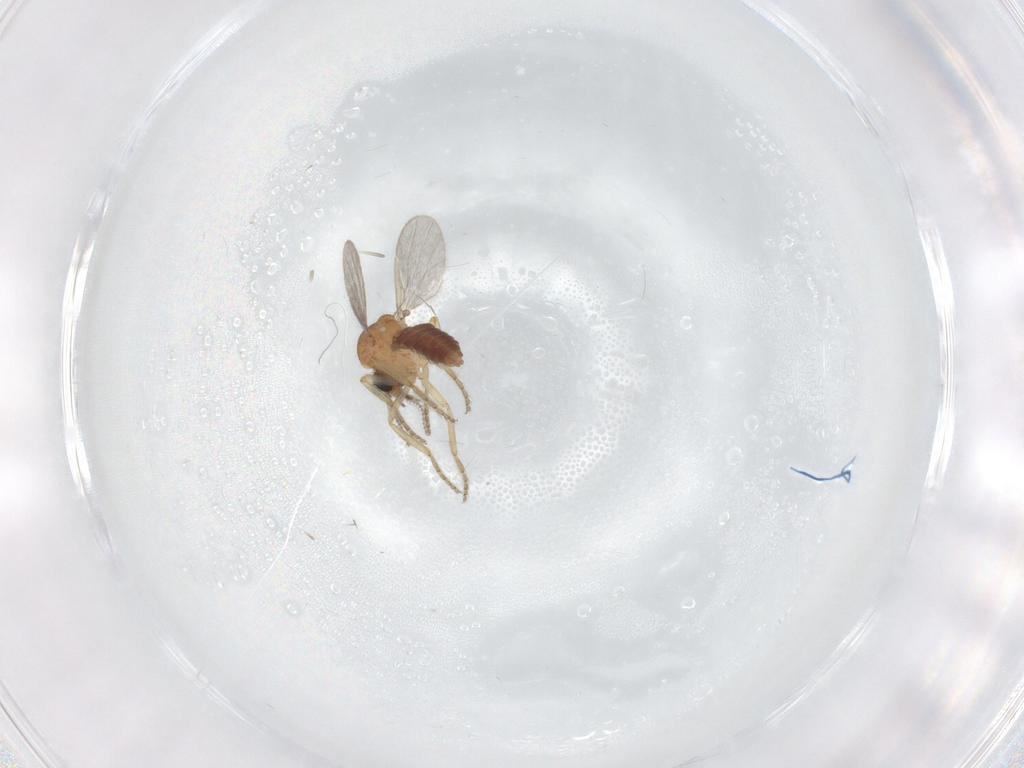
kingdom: Animalia
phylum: Arthropoda
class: Insecta
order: Diptera
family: Ceratopogonidae
